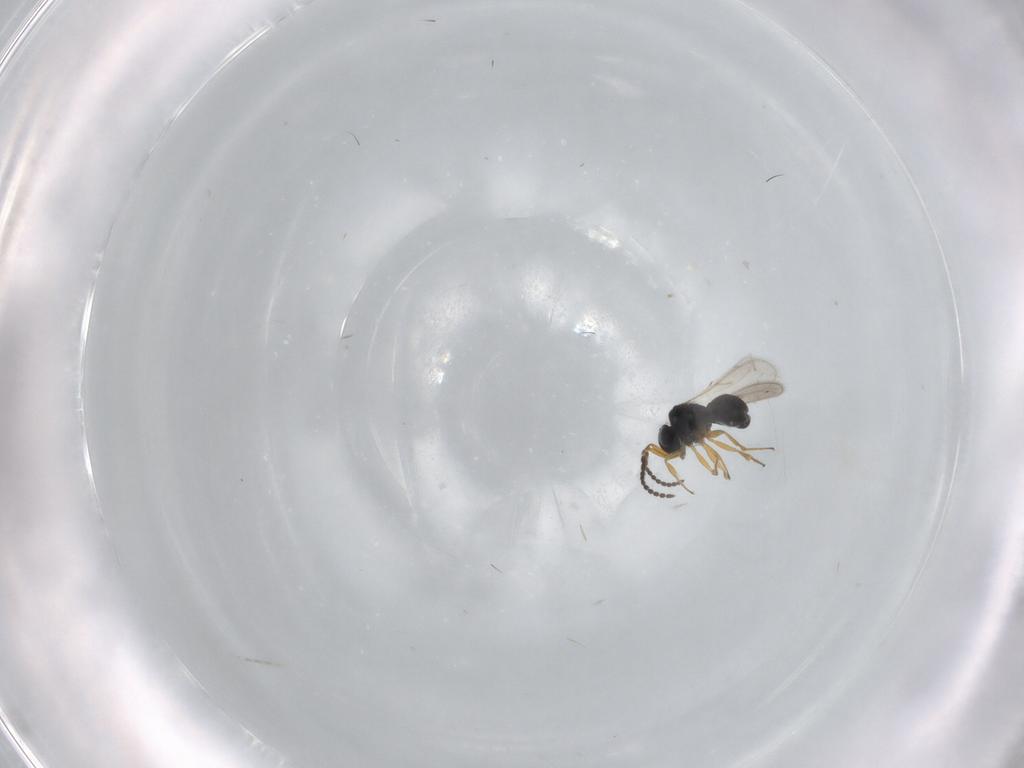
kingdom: Animalia
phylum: Arthropoda
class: Insecta
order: Hymenoptera
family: Scelionidae
